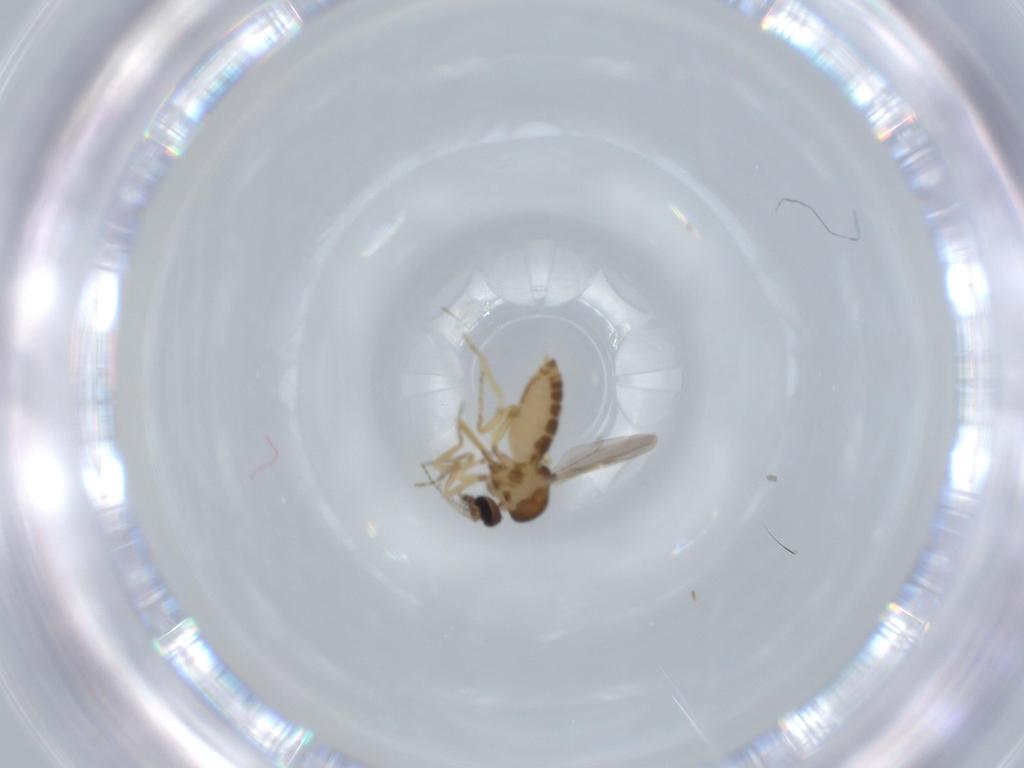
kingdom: Animalia
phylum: Arthropoda
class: Insecta
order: Diptera
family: Ceratopogonidae
